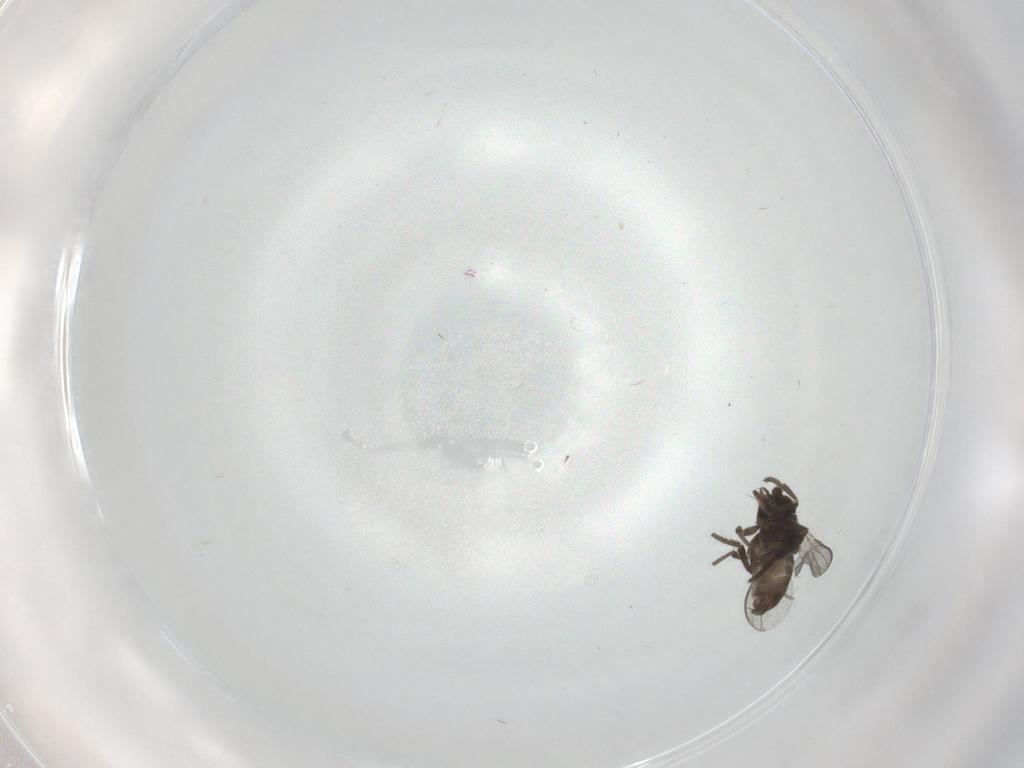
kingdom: Animalia
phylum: Arthropoda
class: Insecta
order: Diptera
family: Milichiidae
